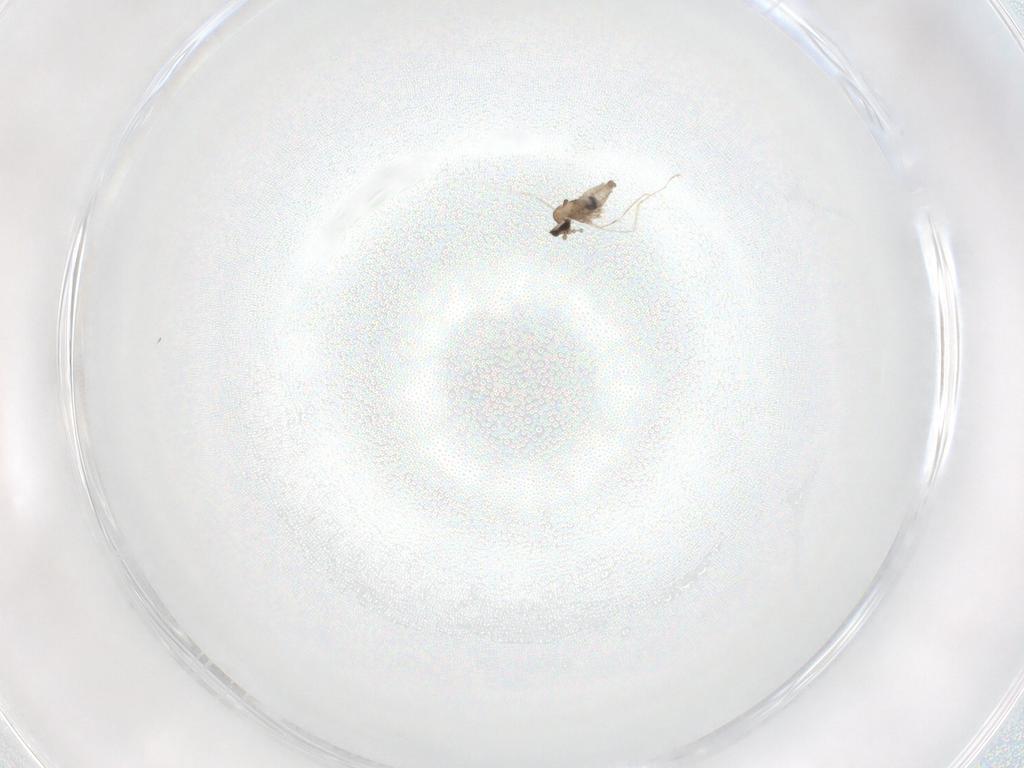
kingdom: Animalia
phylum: Arthropoda
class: Insecta
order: Diptera
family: Cecidomyiidae
